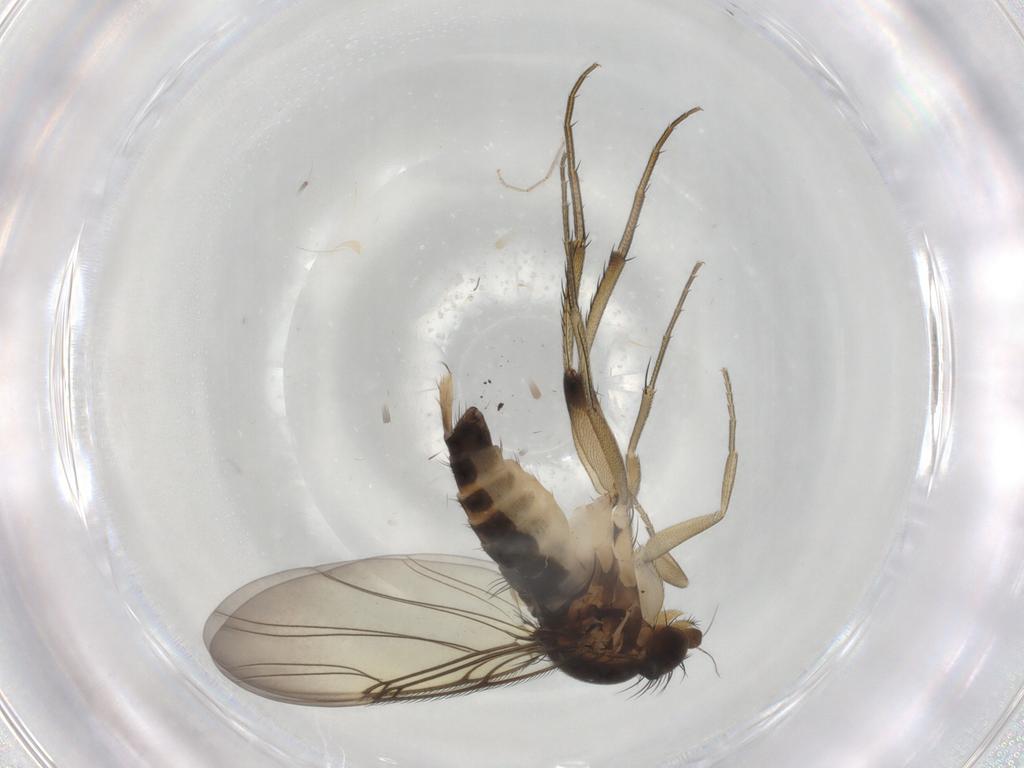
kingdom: Animalia
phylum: Arthropoda
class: Insecta
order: Diptera
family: Phoridae
